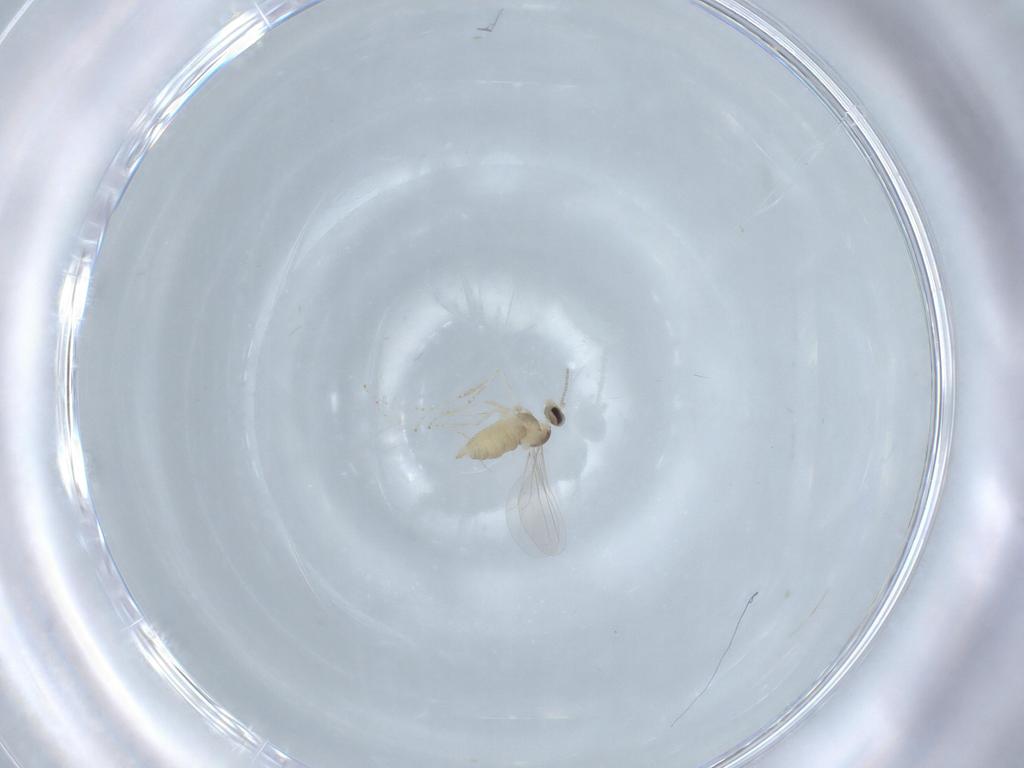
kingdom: Animalia
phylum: Arthropoda
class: Insecta
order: Diptera
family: Cecidomyiidae
